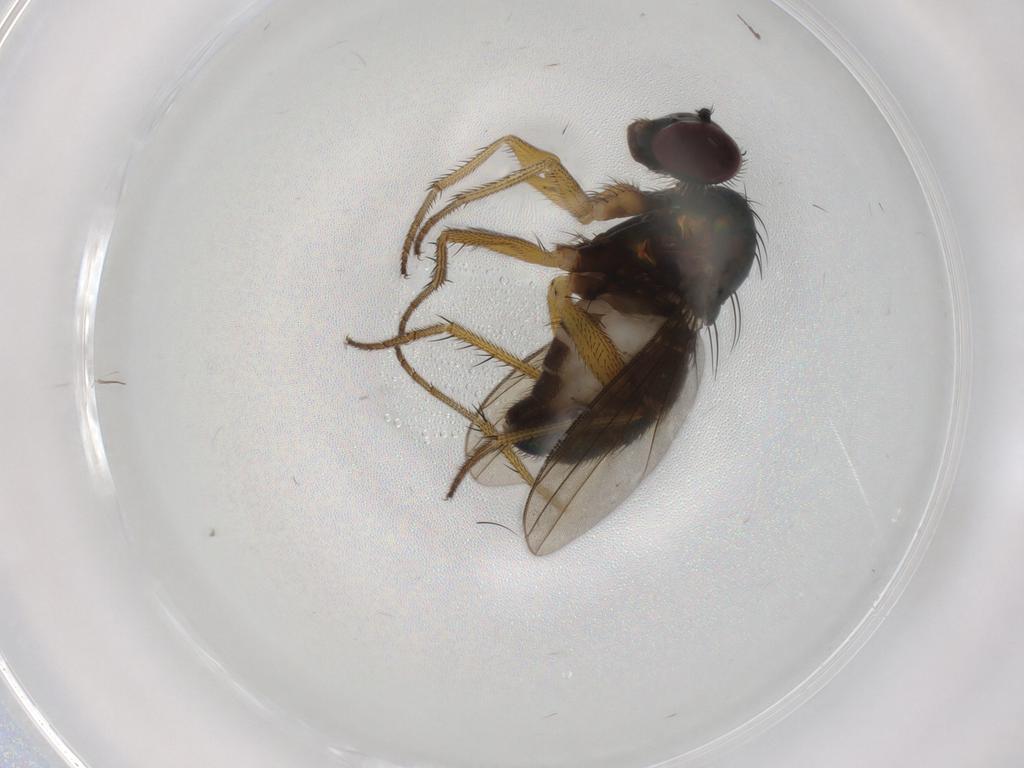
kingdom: Animalia
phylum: Arthropoda
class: Insecta
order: Diptera
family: Dolichopodidae
